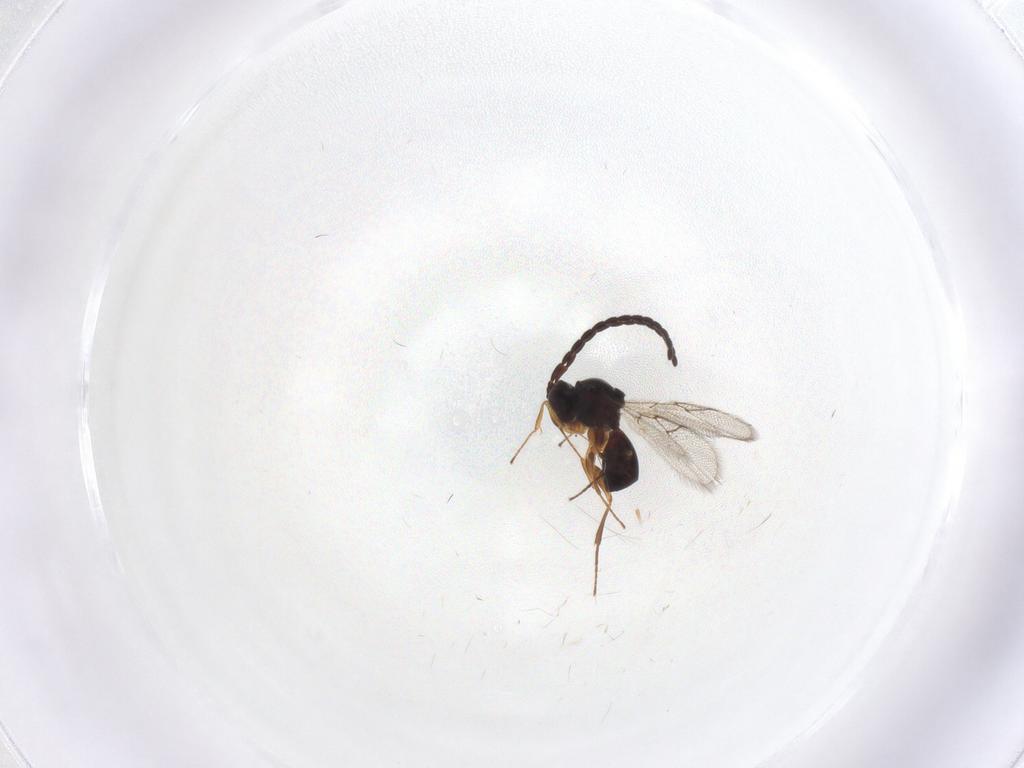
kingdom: Animalia
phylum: Arthropoda
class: Insecta
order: Hymenoptera
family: Figitidae
